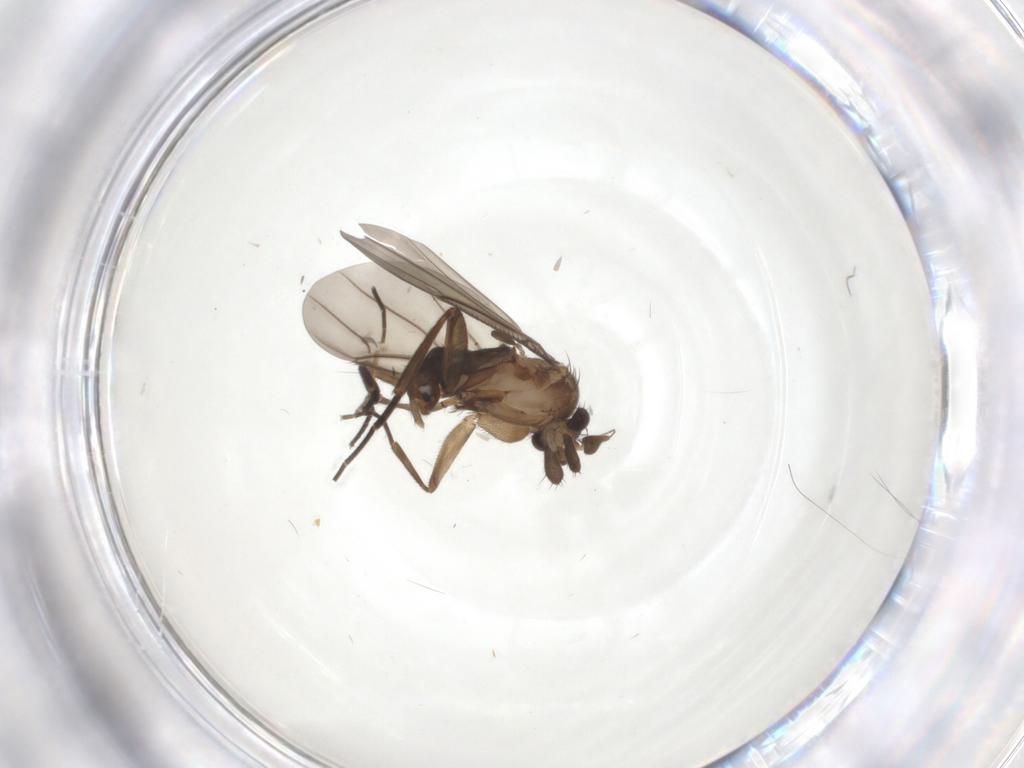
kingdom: Animalia
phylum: Arthropoda
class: Insecta
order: Diptera
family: Phoridae
